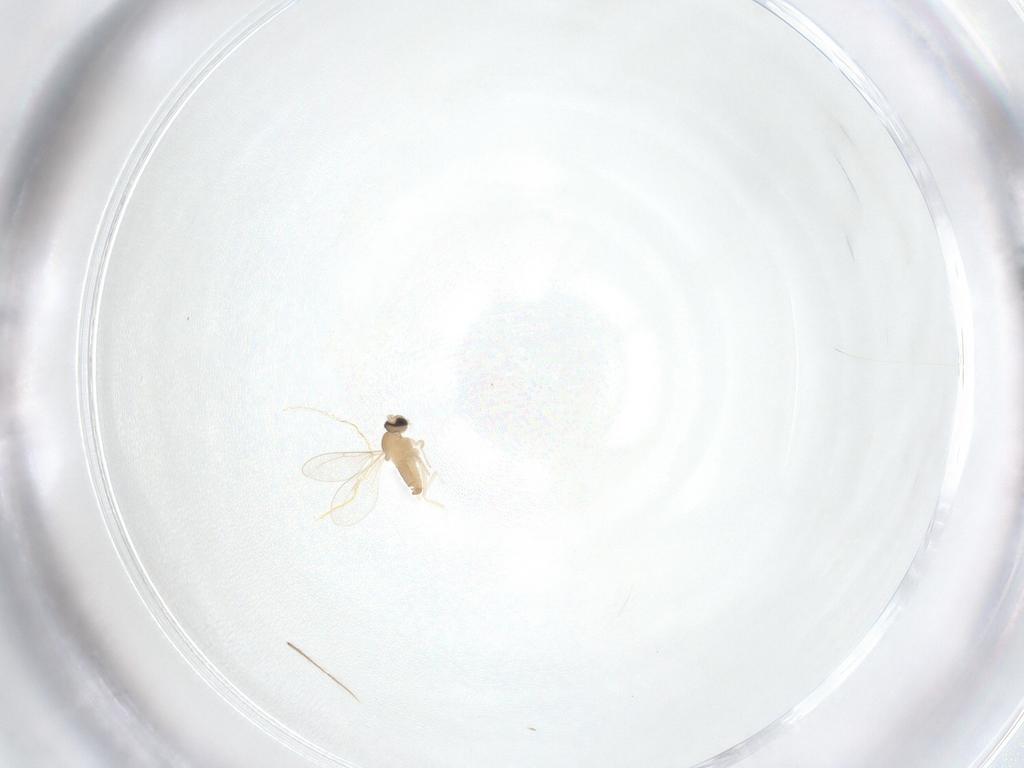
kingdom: Animalia
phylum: Arthropoda
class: Insecta
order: Diptera
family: Cecidomyiidae
